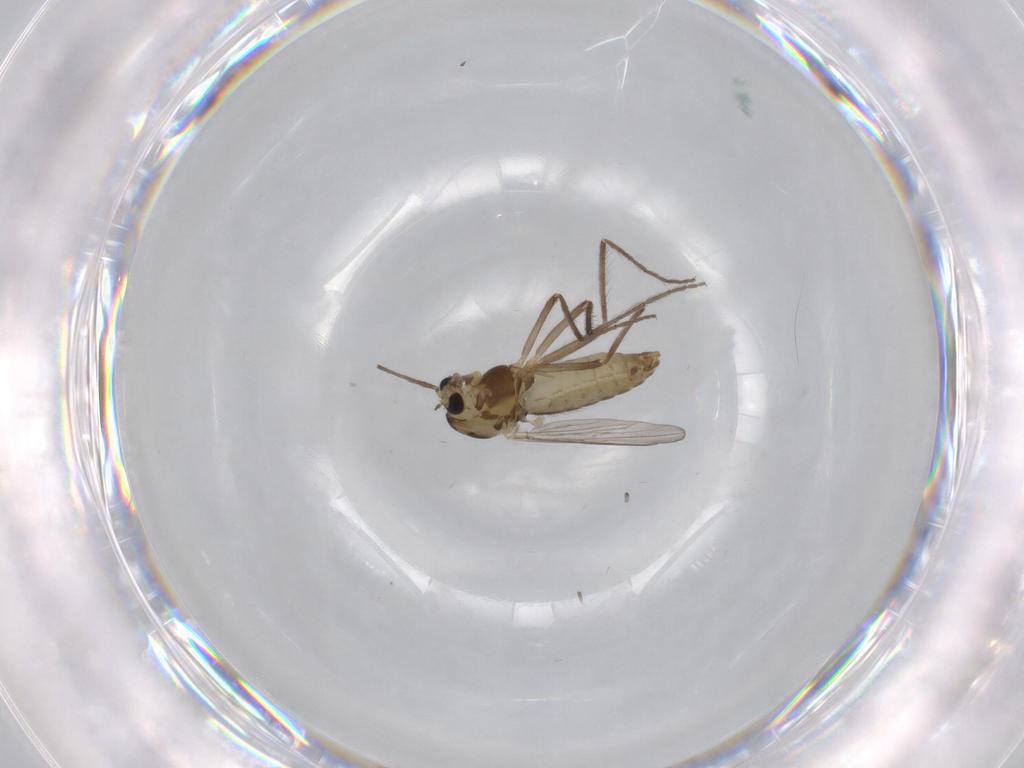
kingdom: Animalia
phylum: Arthropoda
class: Insecta
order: Diptera
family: Chironomidae
